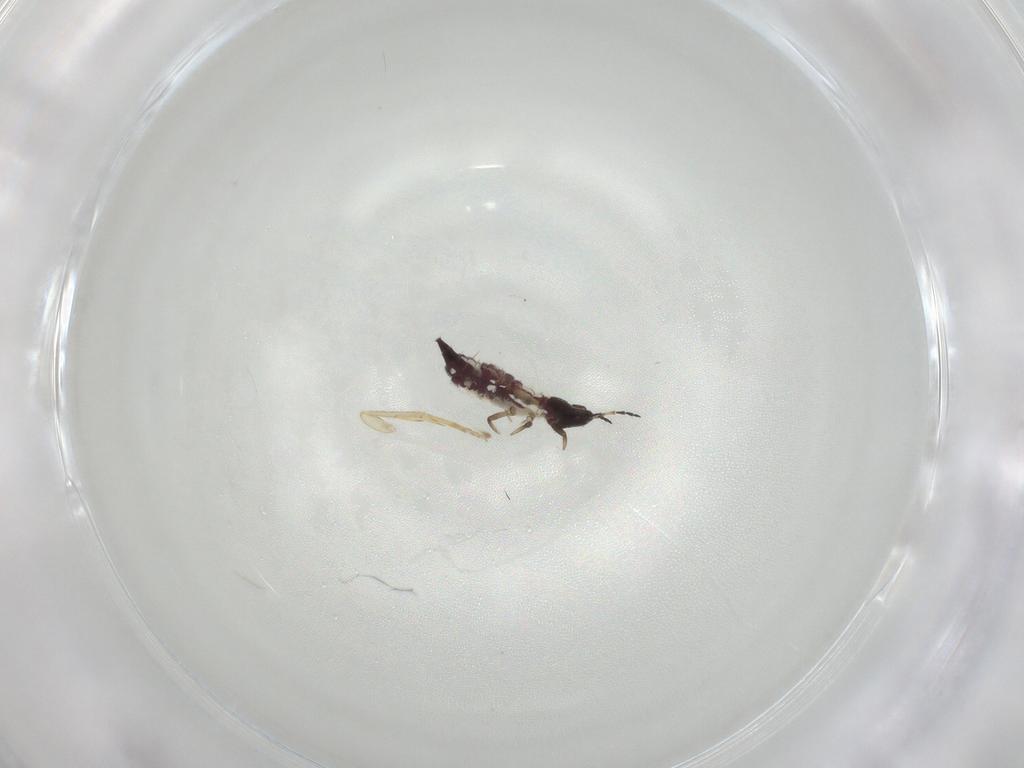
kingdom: Animalia
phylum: Arthropoda
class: Insecta
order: Thysanoptera
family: Phlaeothripidae
